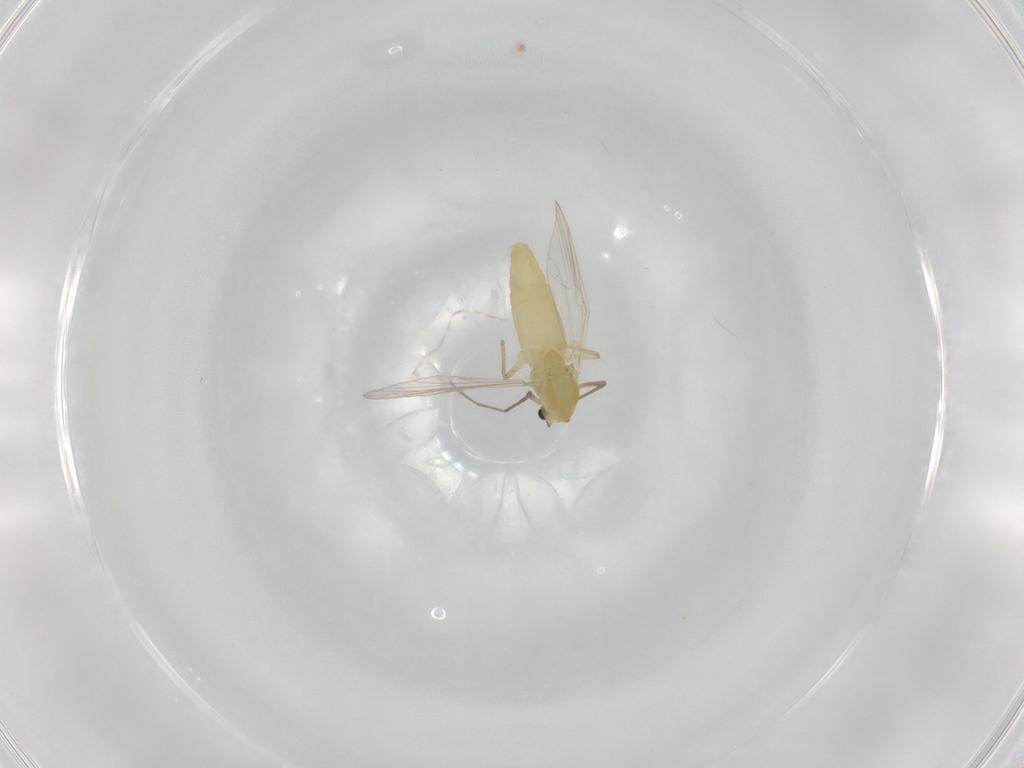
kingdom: Animalia
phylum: Arthropoda
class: Insecta
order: Diptera
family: Chironomidae
